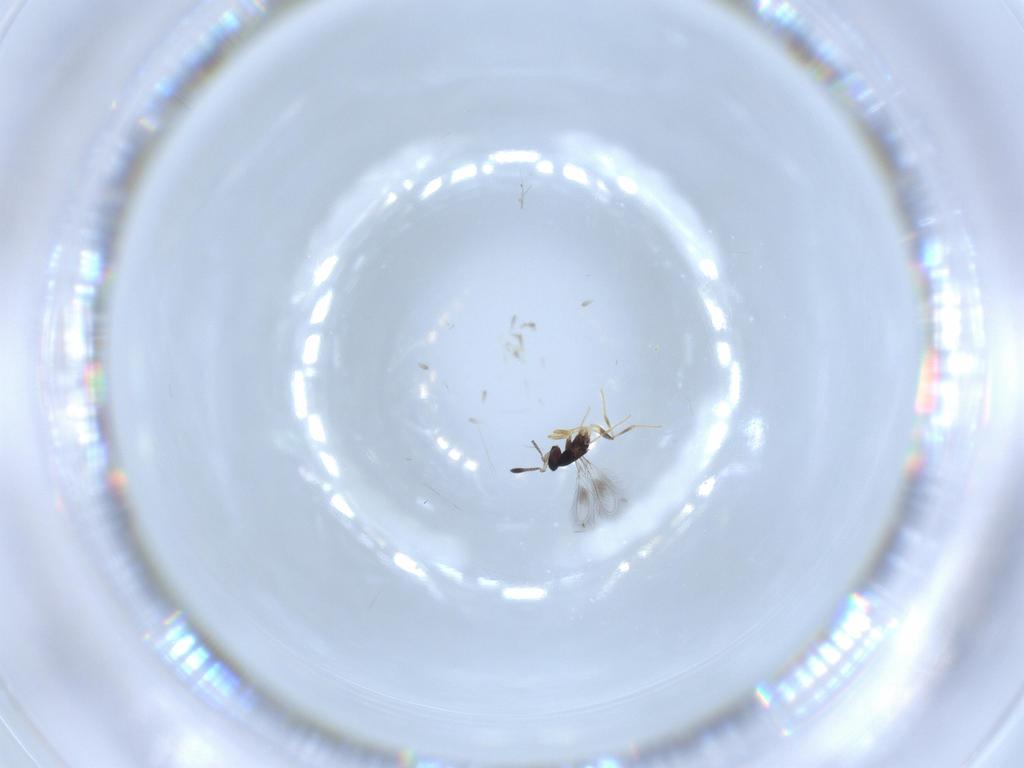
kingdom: Animalia
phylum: Arthropoda
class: Insecta
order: Hymenoptera
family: Mymaridae
